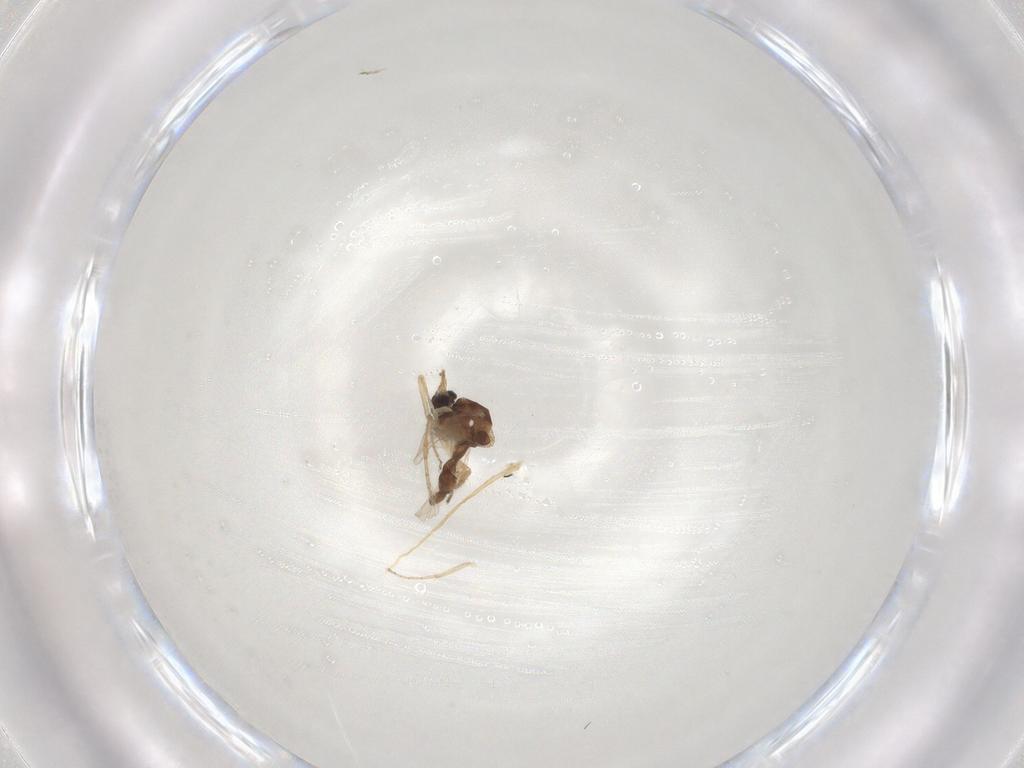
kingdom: Animalia
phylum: Arthropoda
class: Insecta
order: Diptera
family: Ceratopogonidae
